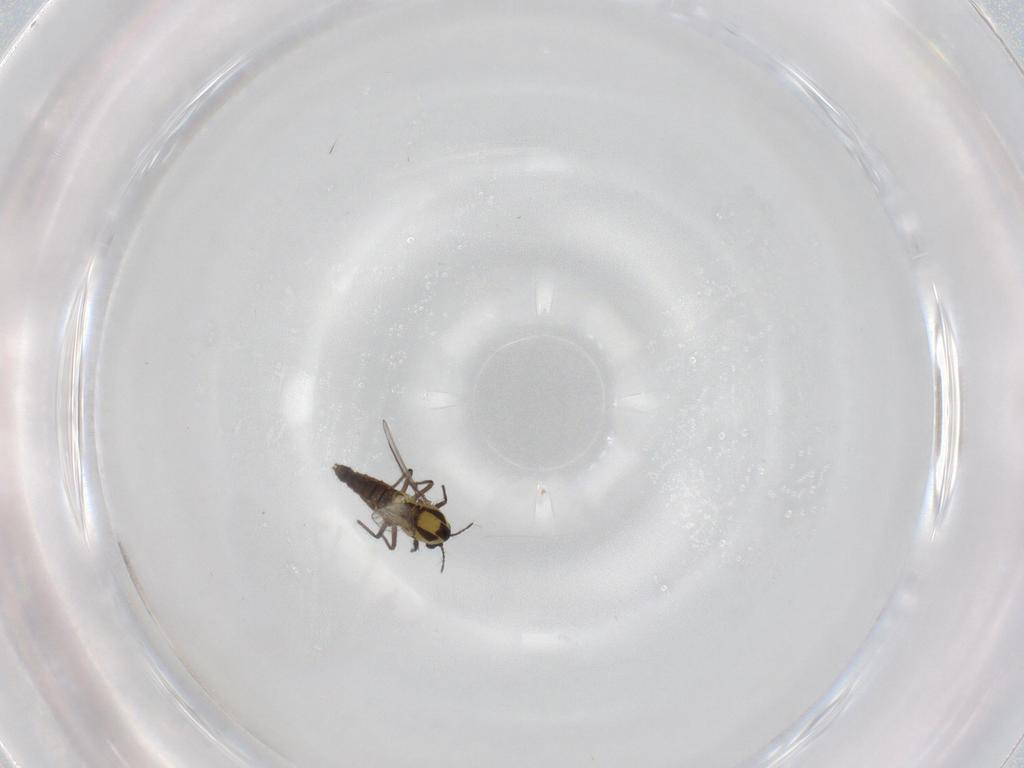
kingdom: Animalia
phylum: Arthropoda
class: Insecta
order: Diptera
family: Chironomidae
